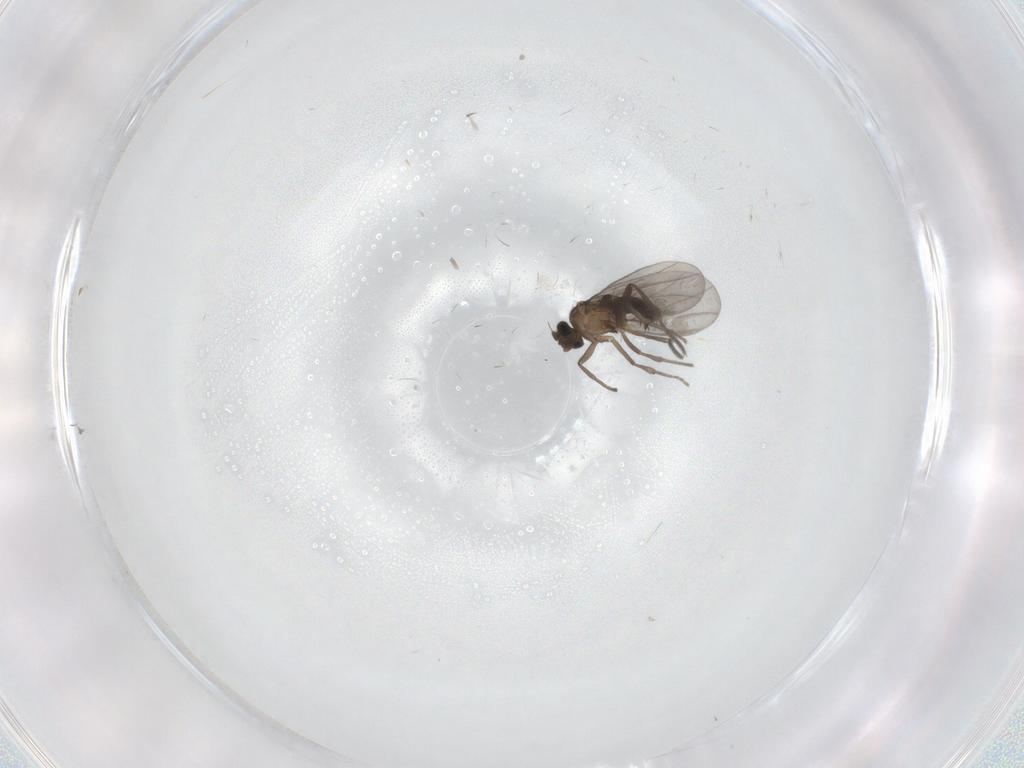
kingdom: Animalia
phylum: Arthropoda
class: Insecta
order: Diptera
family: Phoridae
